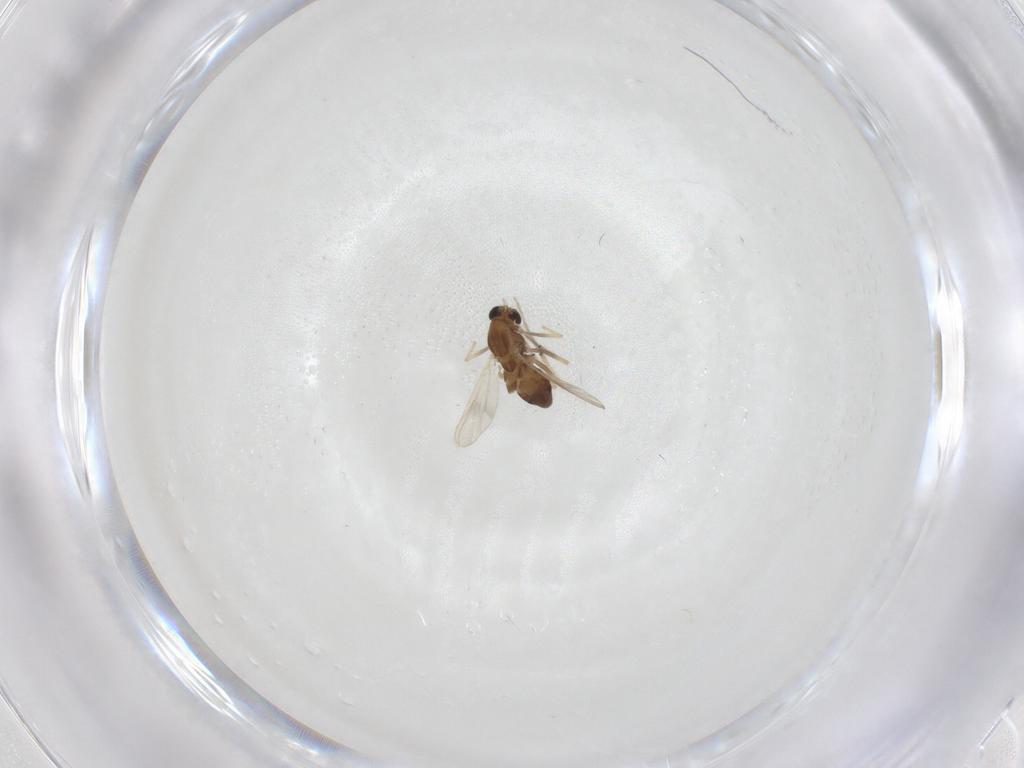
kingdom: Animalia
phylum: Arthropoda
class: Insecta
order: Diptera
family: Chironomidae
